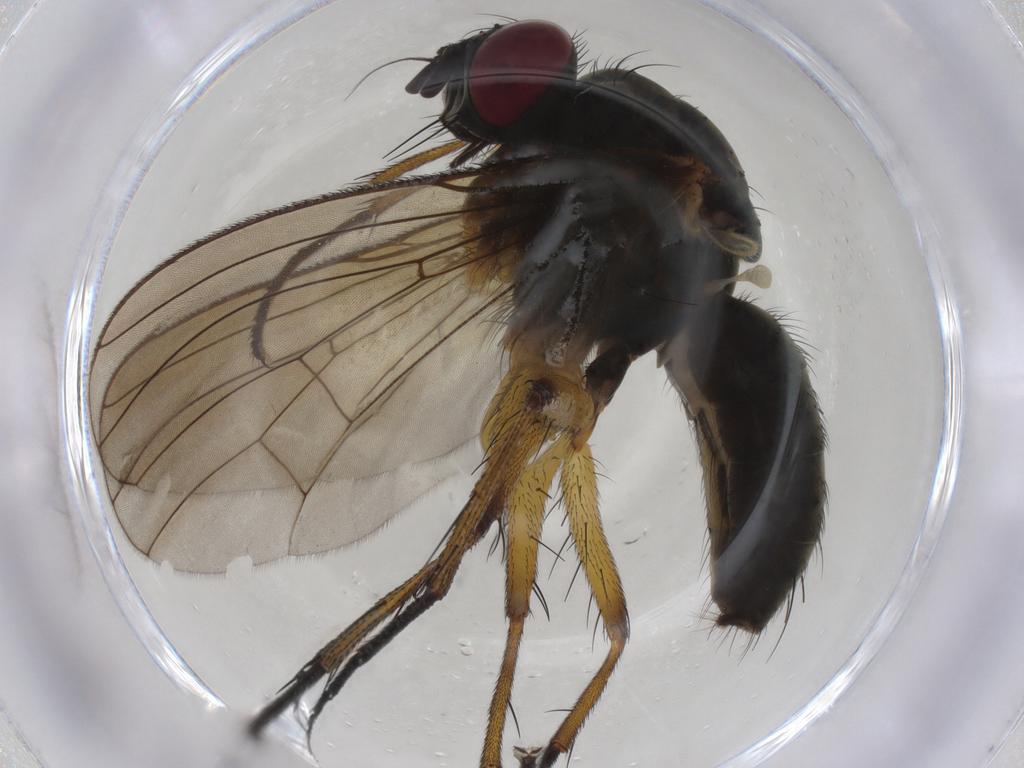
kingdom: Animalia
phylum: Arthropoda
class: Insecta
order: Diptera
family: Muscidae
